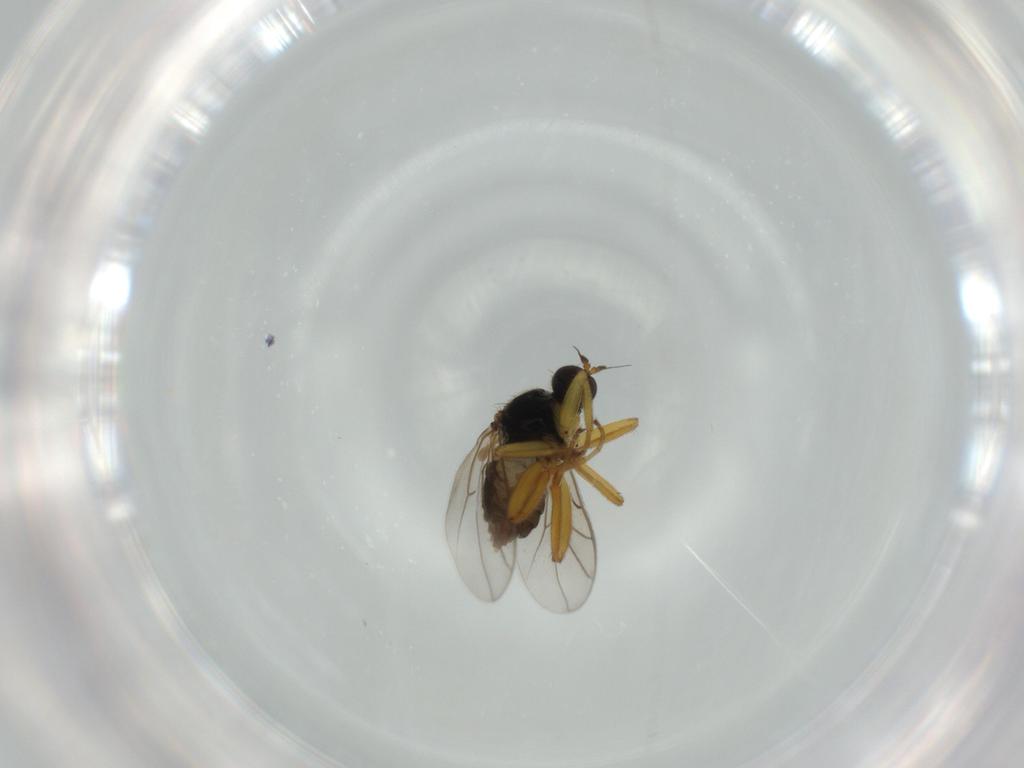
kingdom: Animalia
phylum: Arthropoda
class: Insecta
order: Diptera
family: Hybotidae
